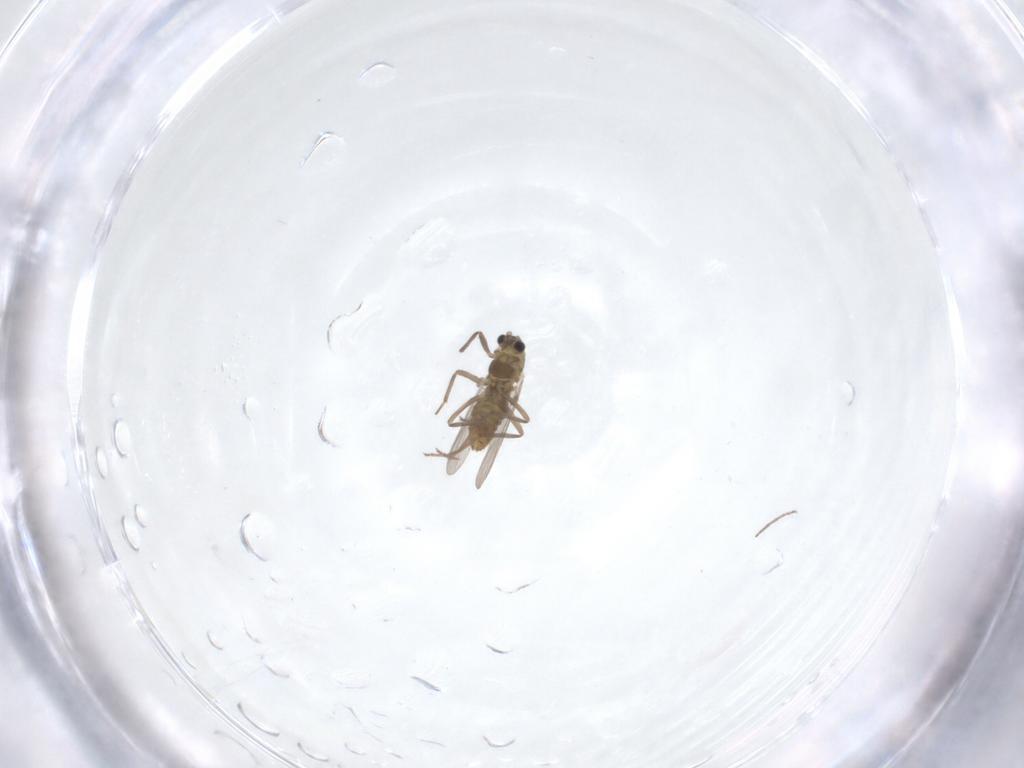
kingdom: Animalia
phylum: Arthropoda
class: Insecta
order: Diptera
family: Chironomidae
